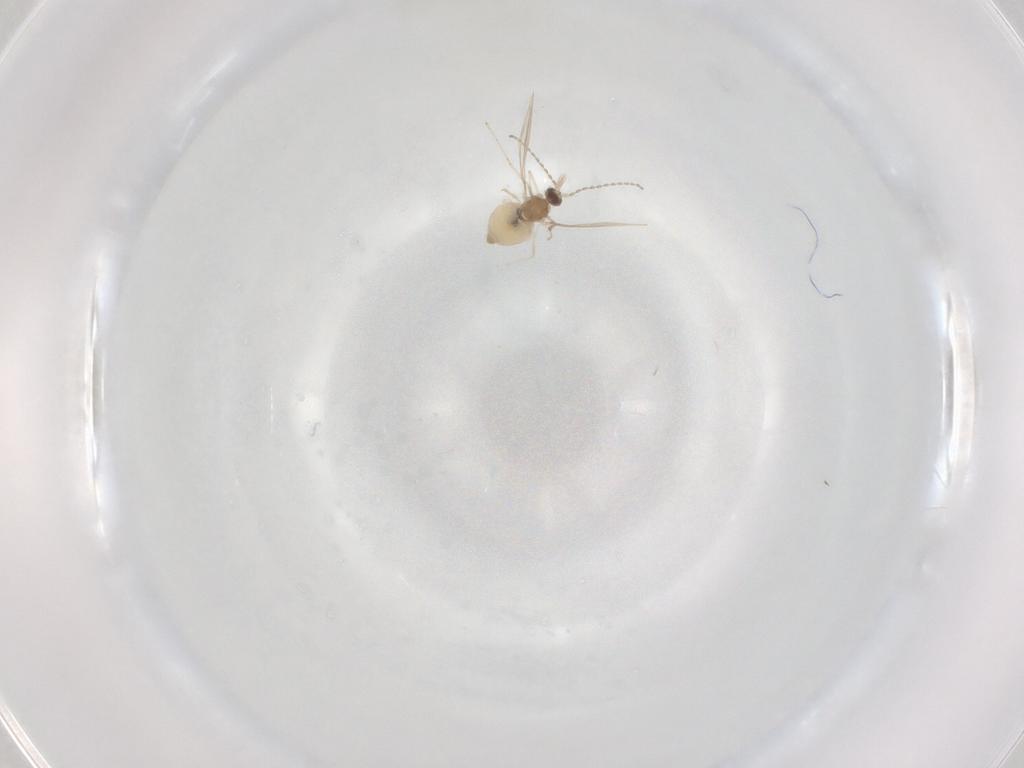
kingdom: Animalia
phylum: Arthropoda
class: Insecta
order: Diptera
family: Cecidomyiidae
